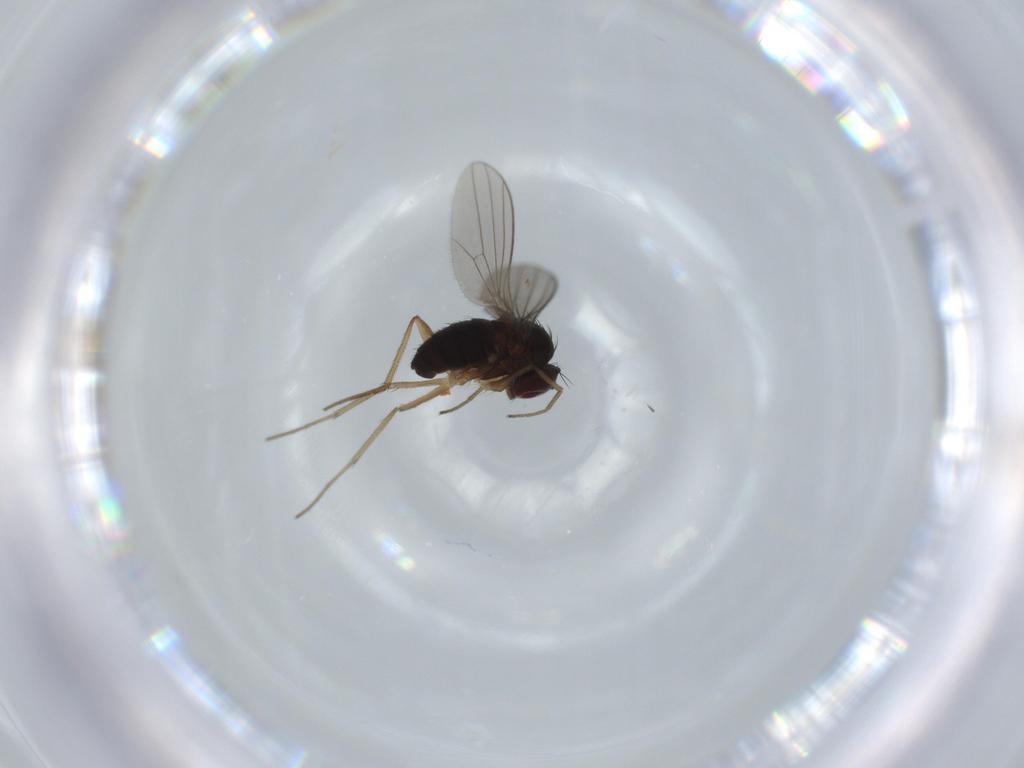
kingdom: Animalia
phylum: Arthropoda
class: Insecta
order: Diptera
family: Dolichopodidae
